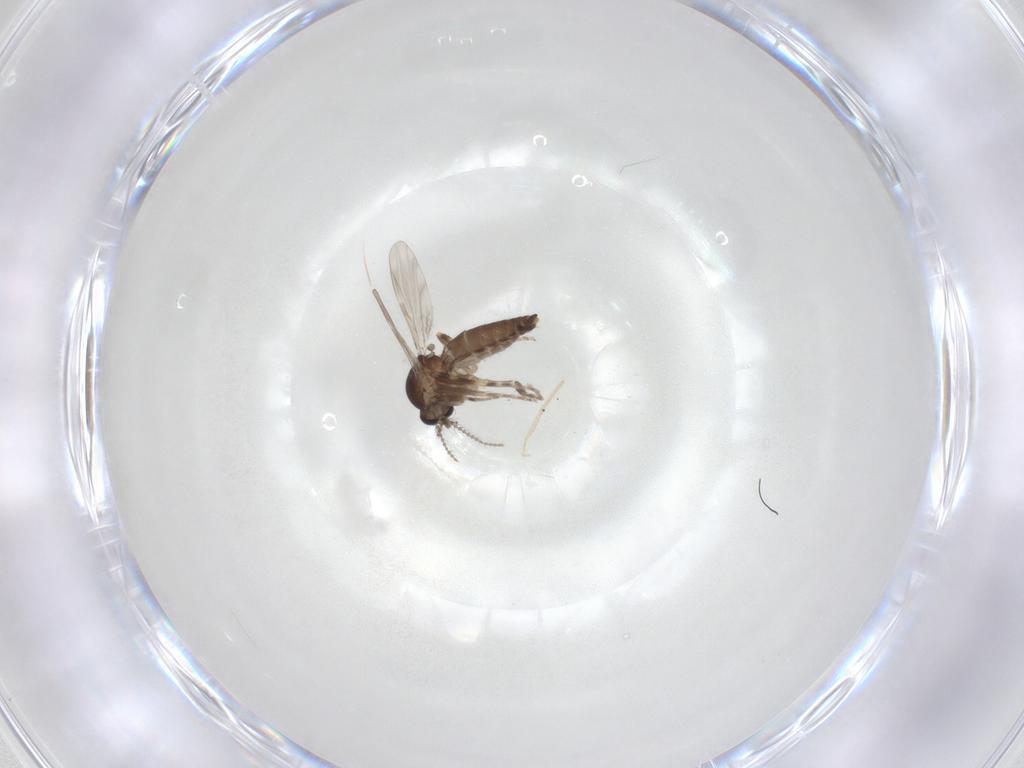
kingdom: Animalia
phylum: Arthropoda
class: Insecta
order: Diptera
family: Ceratopogonidae
